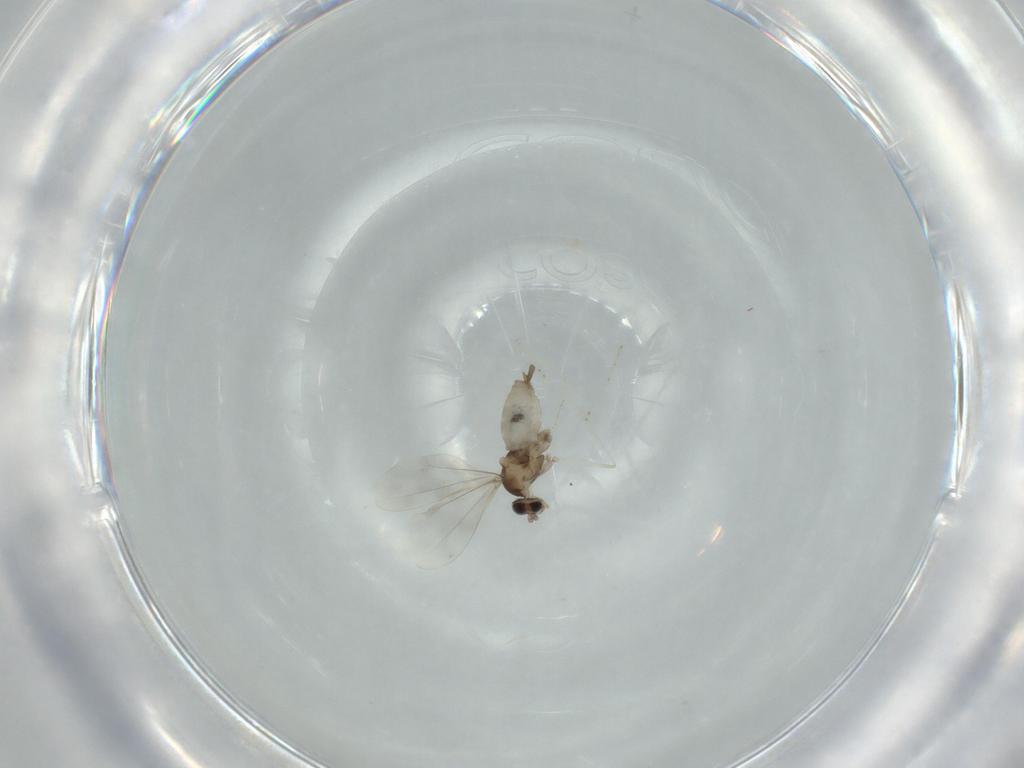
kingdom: Animalia
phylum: Arthropoda
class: Insecta
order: Diptera
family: Cecidomyiidae
